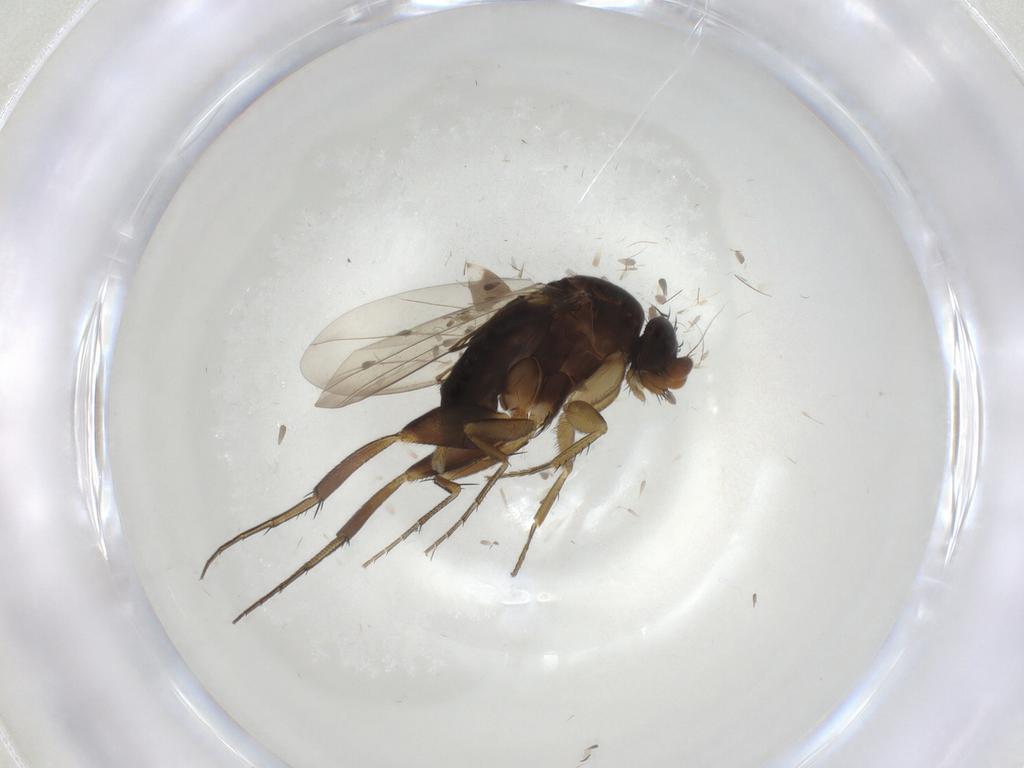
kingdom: Animalia
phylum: Arthropoda
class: Insecta
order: Diptera
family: Phoridae
